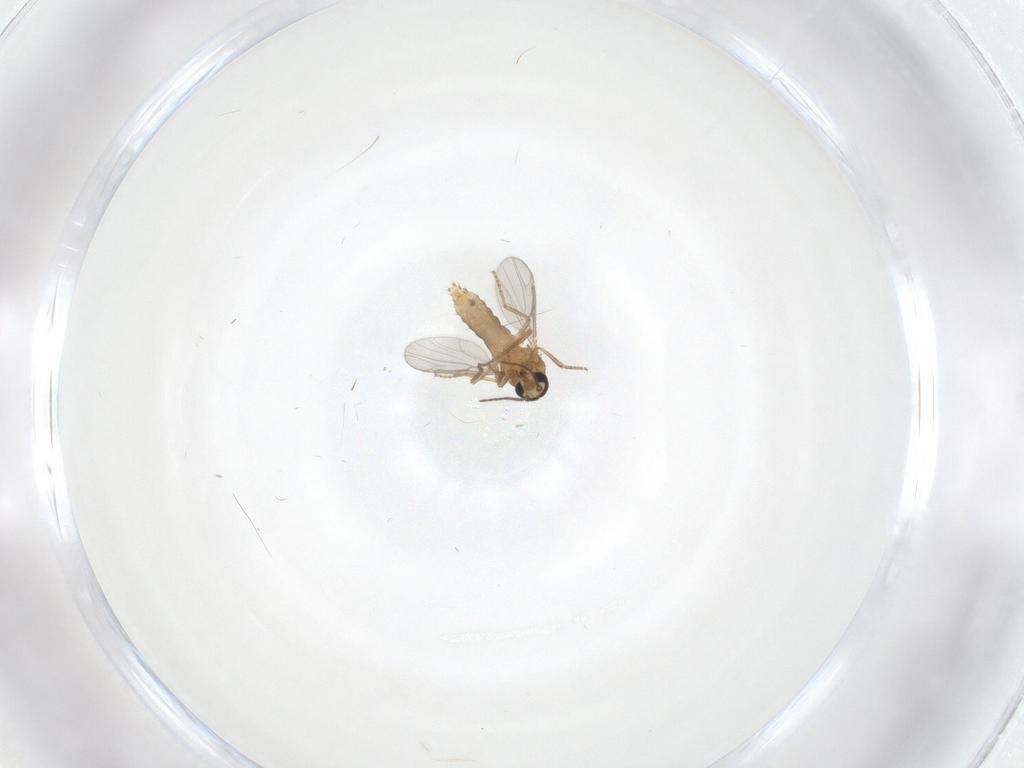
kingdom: Animalia
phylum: Arthropoda
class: Insecta
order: Diptera
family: Ceratopogonidae
